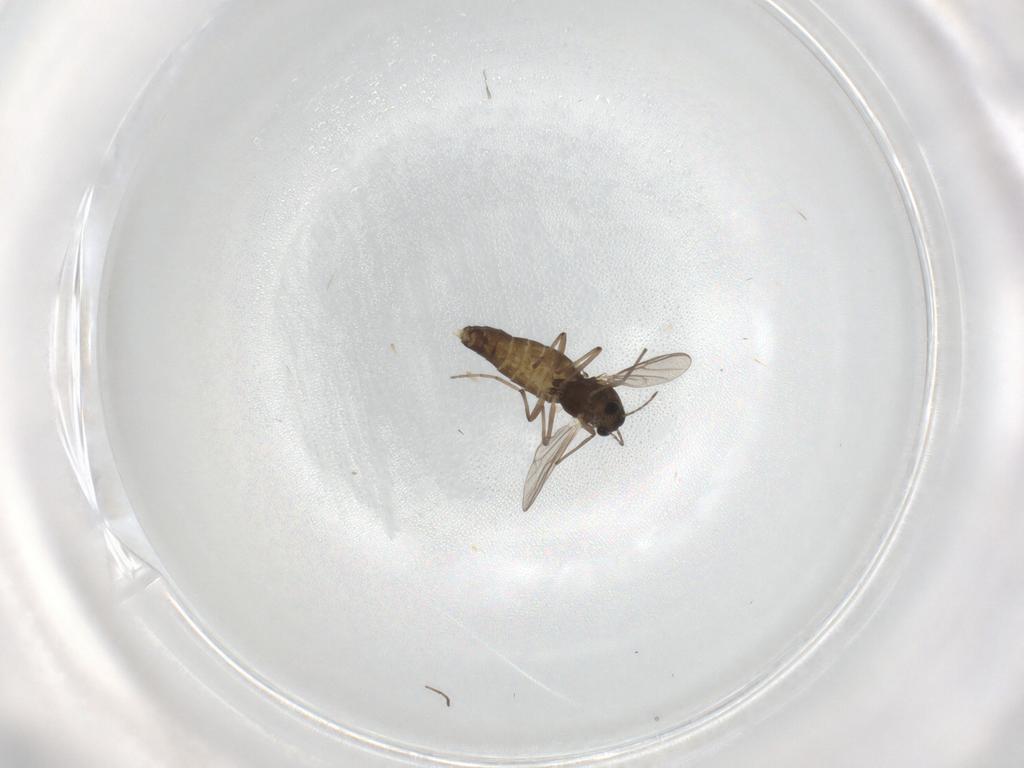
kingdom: Animalia
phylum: Arthropoda
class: Insecta
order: Diptera
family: Chironomidae
